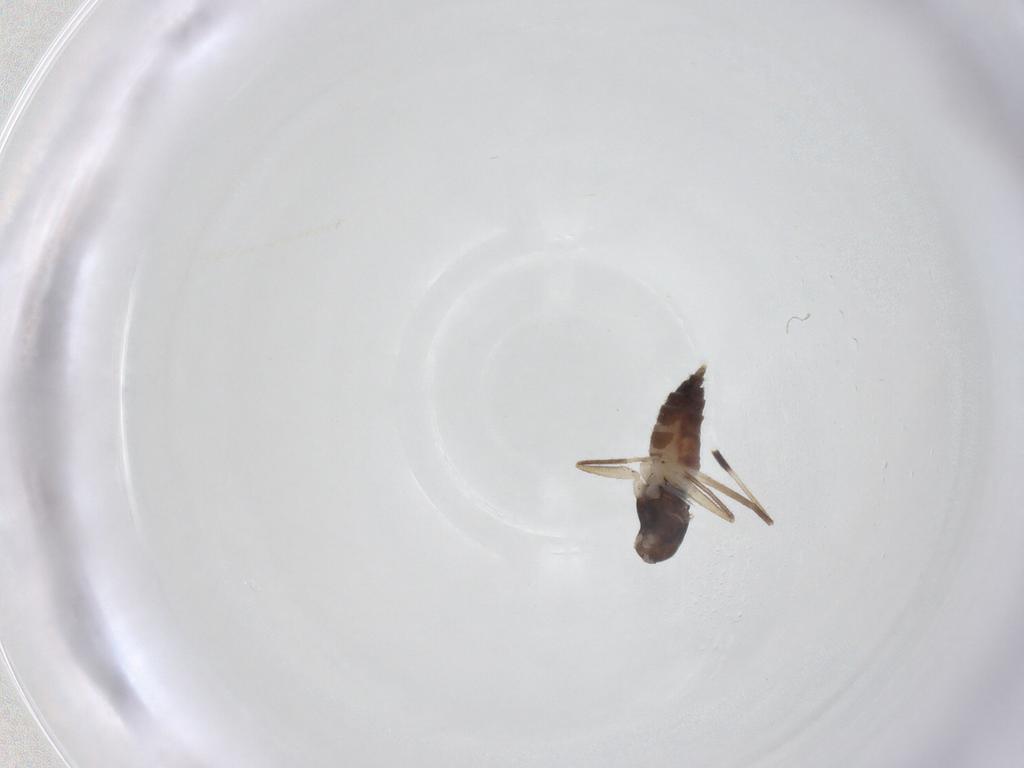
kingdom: Animalia
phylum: Arthropoda
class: Insecta
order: Diptera
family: Hybotidae
